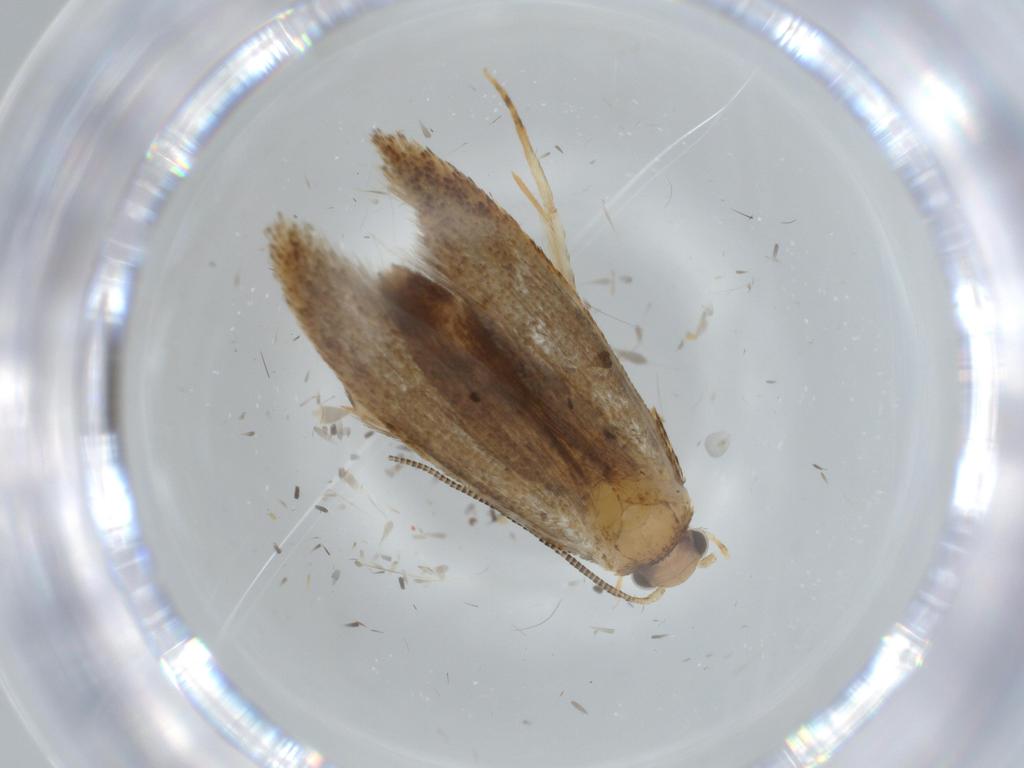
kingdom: Animalia
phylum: Arthropoda
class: Insecta
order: Lepidoptera
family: Tineidae
